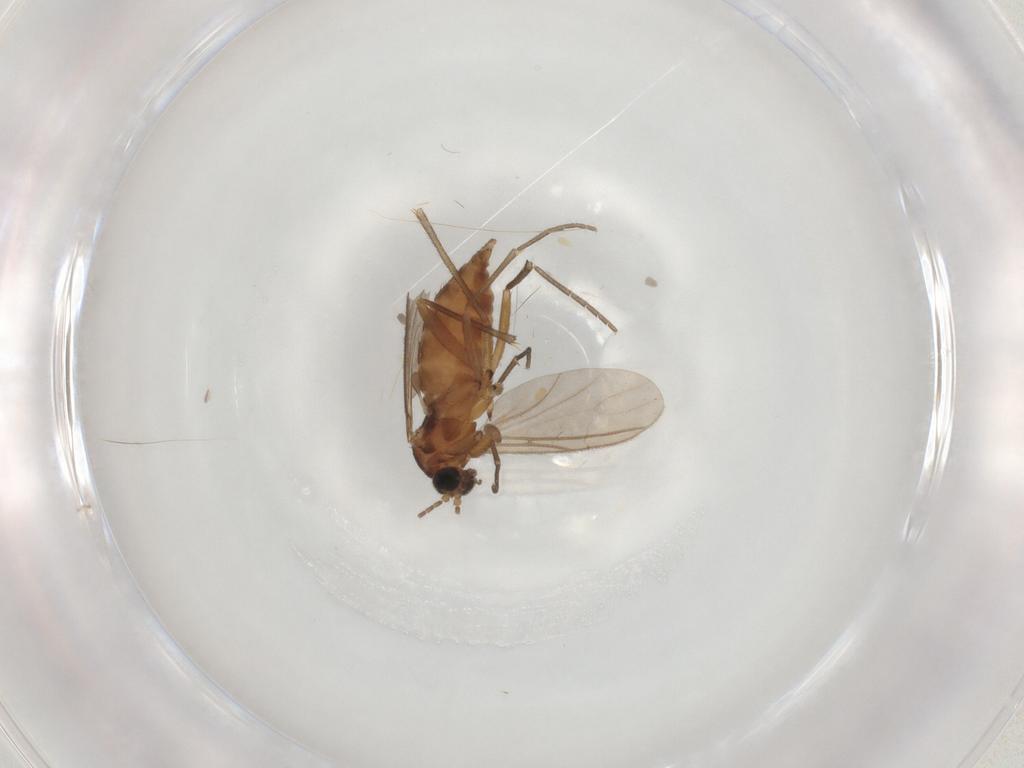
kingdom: Animalia
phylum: Arthropoda
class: Insecta
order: Diptera
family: Sciaridae
